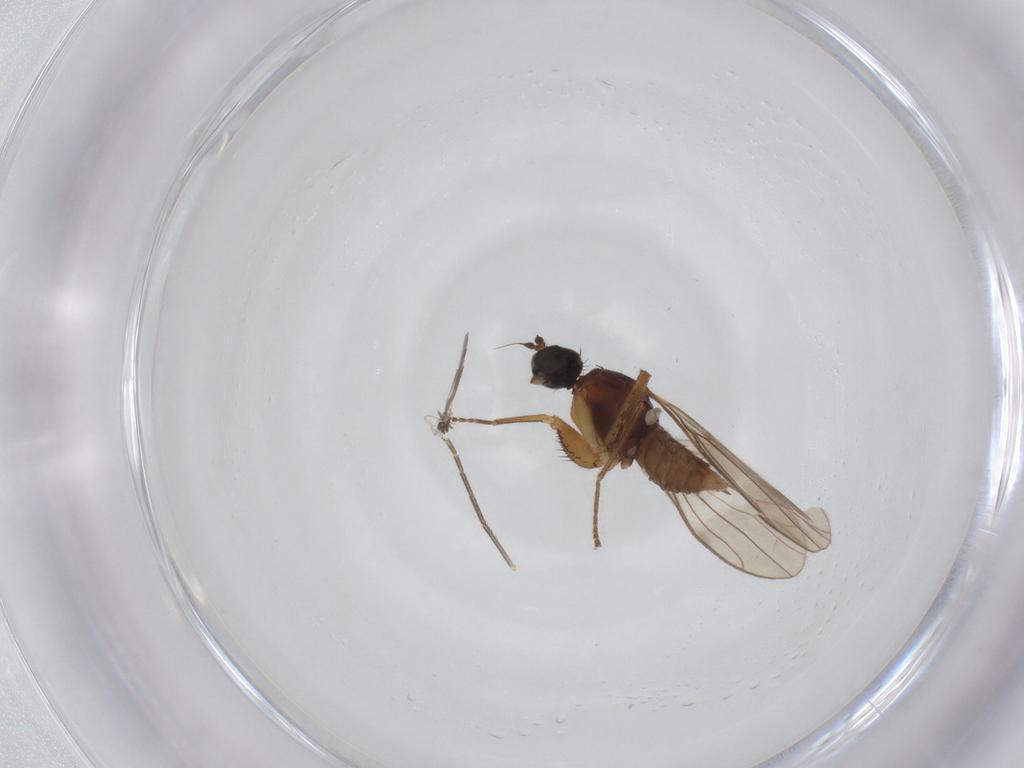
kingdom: Animalia
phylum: Arthropoda
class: Insecta
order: Diptera
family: Empididae
